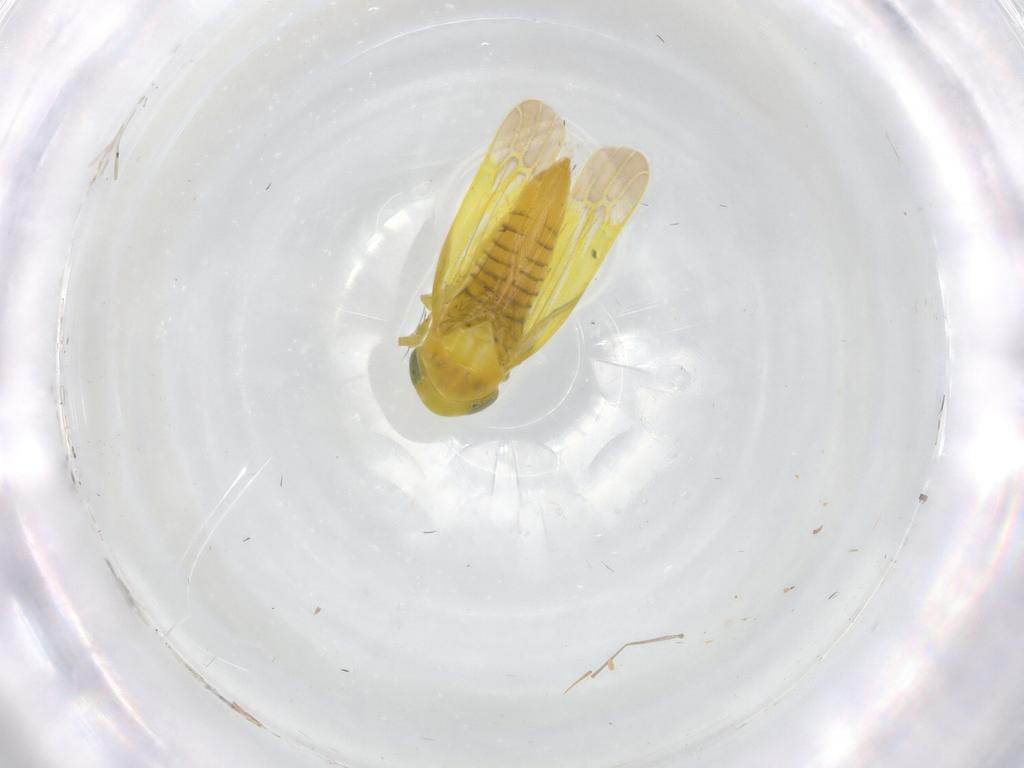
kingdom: Animalia
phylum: Arthropoda
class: Insecta
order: Hemiptera
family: Cicadellidae
